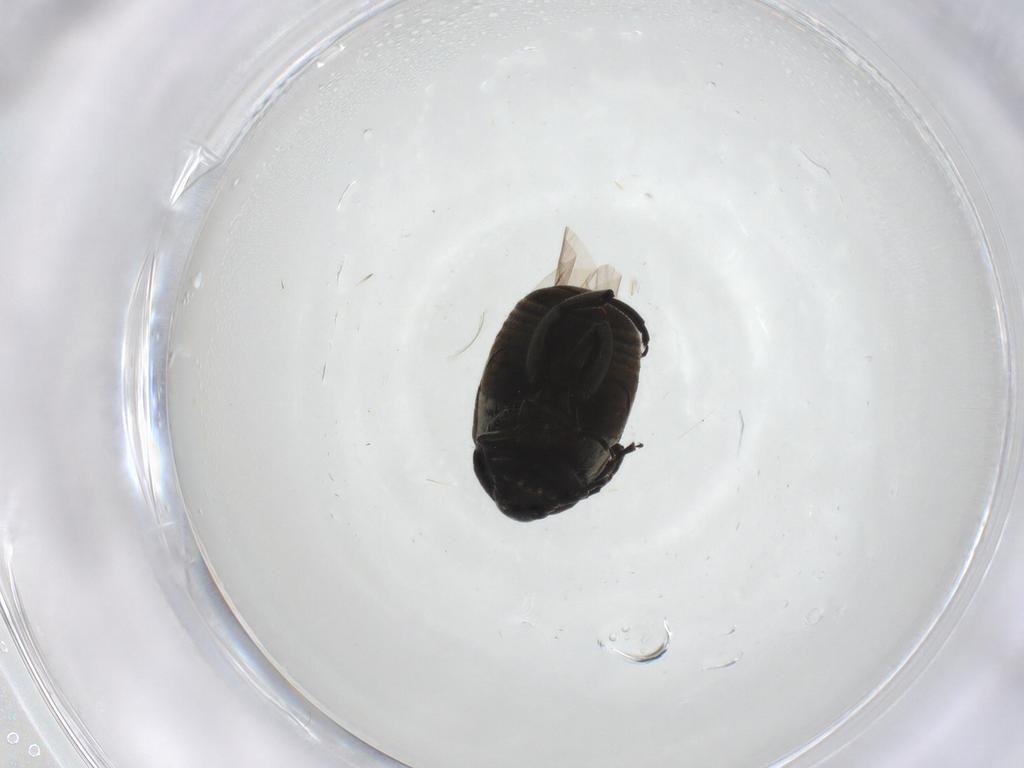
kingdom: Animalia
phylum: Arthropoda
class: Insecta
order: Coleoptera
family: Chrysomelidae
